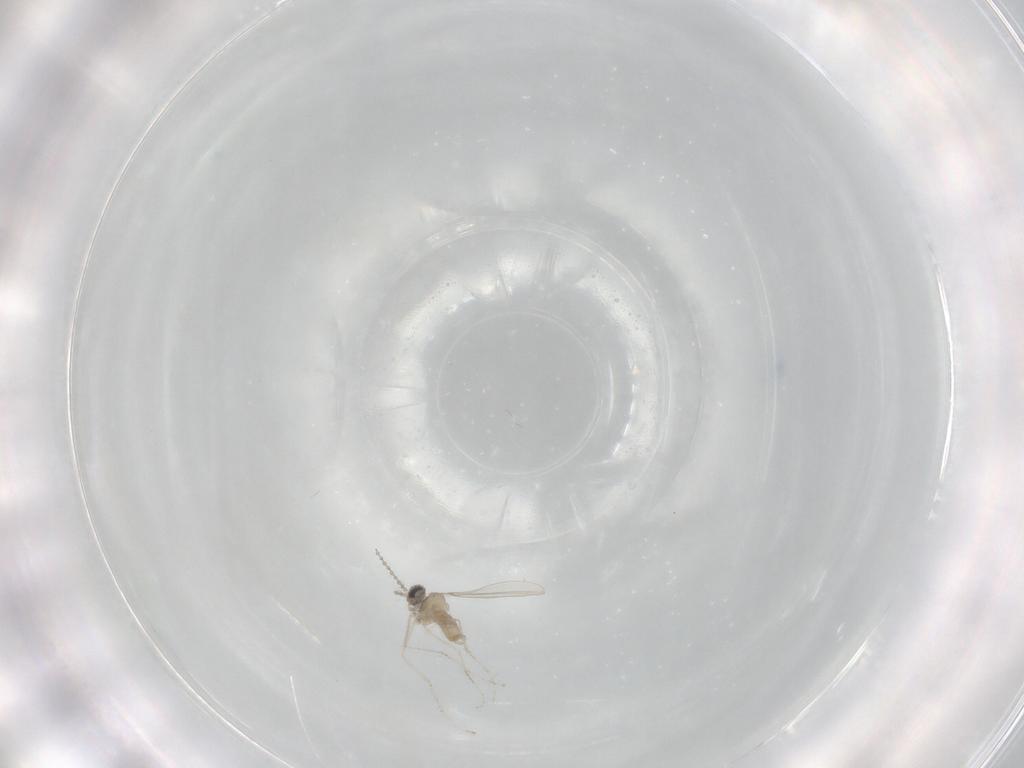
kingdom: Animalia
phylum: Arthropoda
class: Insecta
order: Diptera
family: Cecidomyiidae
